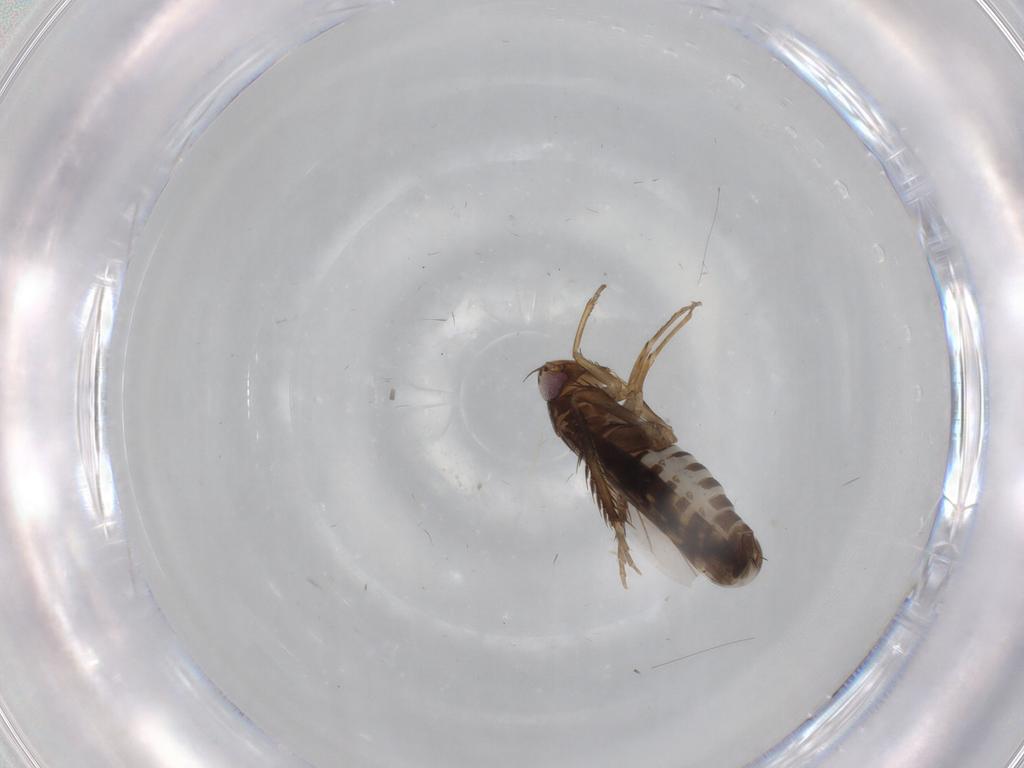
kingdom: Animalia
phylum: Arthropoda
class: Insecta
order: Hemiptera
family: Cicadellidae
